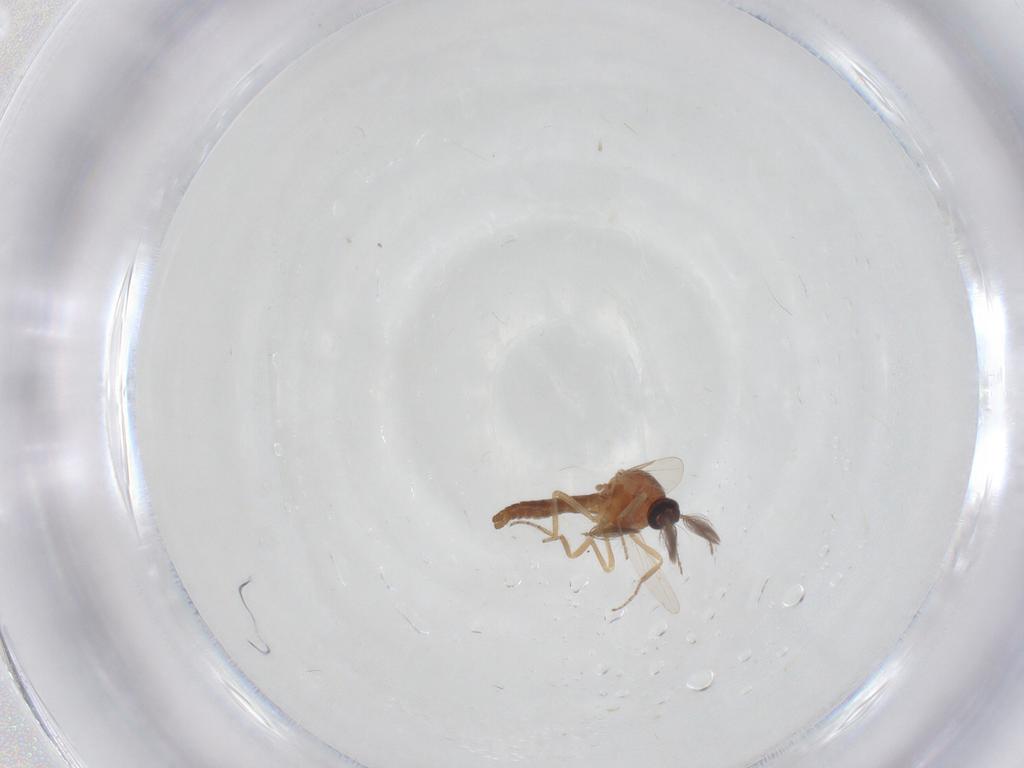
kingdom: Animalia
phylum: Arthropoda
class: Insecta
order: Diptera
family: Ceratopogonidae
